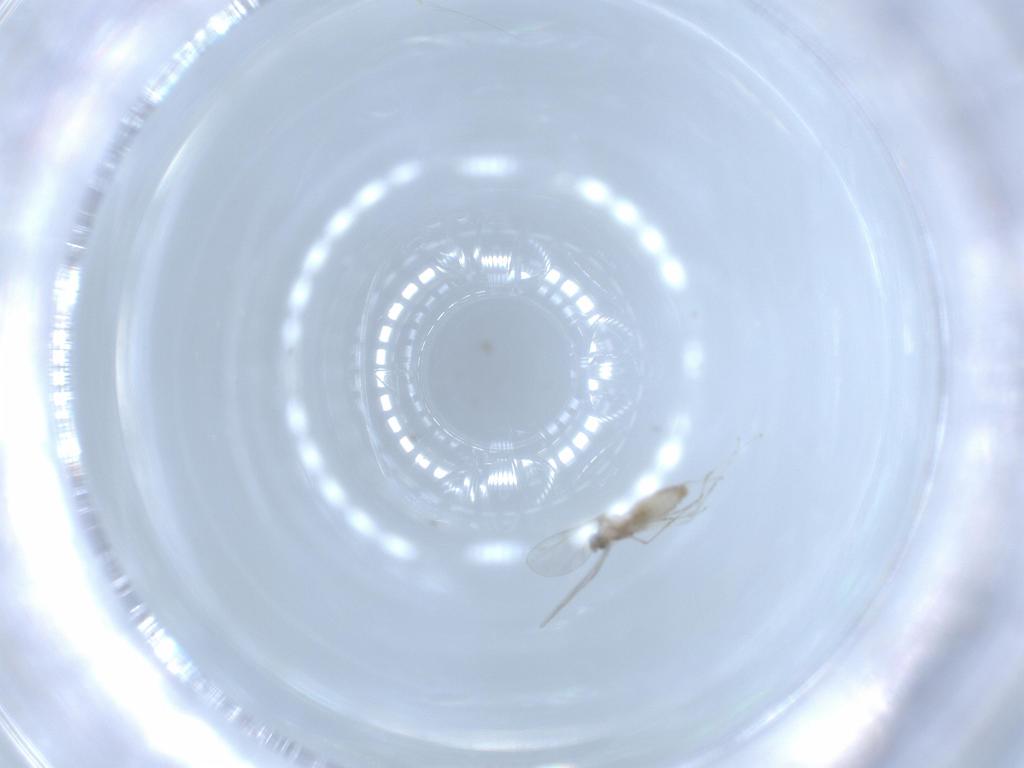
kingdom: Animalia
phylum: Arthropoda
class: Insecta
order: Diptera
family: Cecidomyiidae
